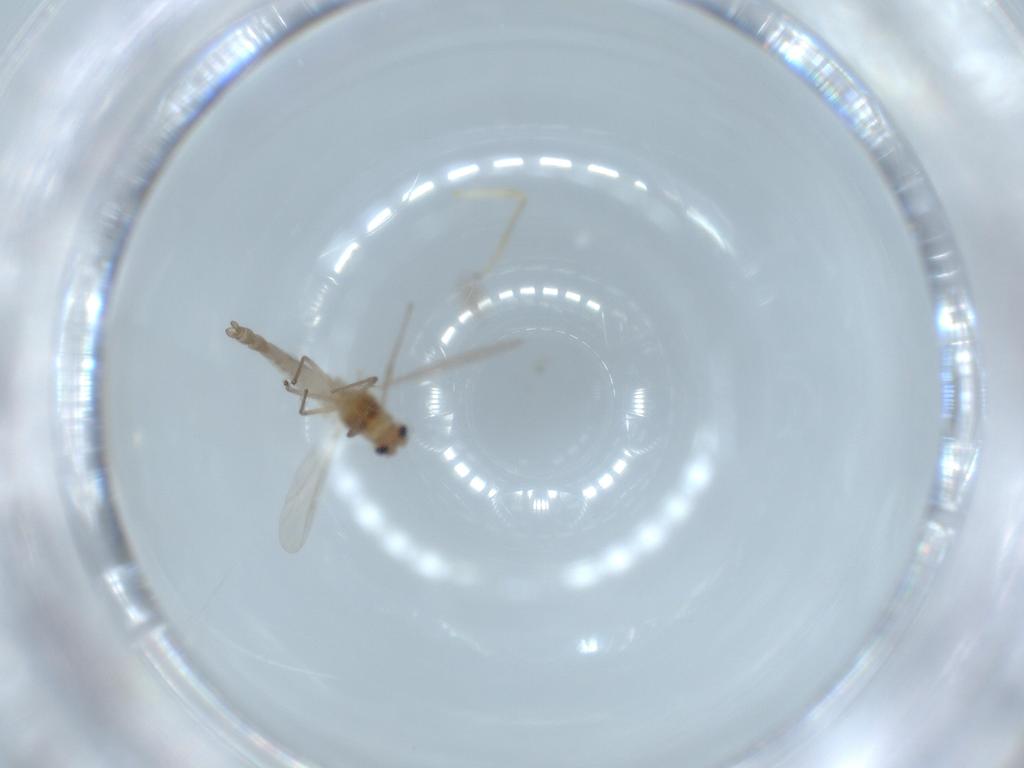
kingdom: Animalia
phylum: Arthropoda
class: Insecta
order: Diptera
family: Chironomidae
